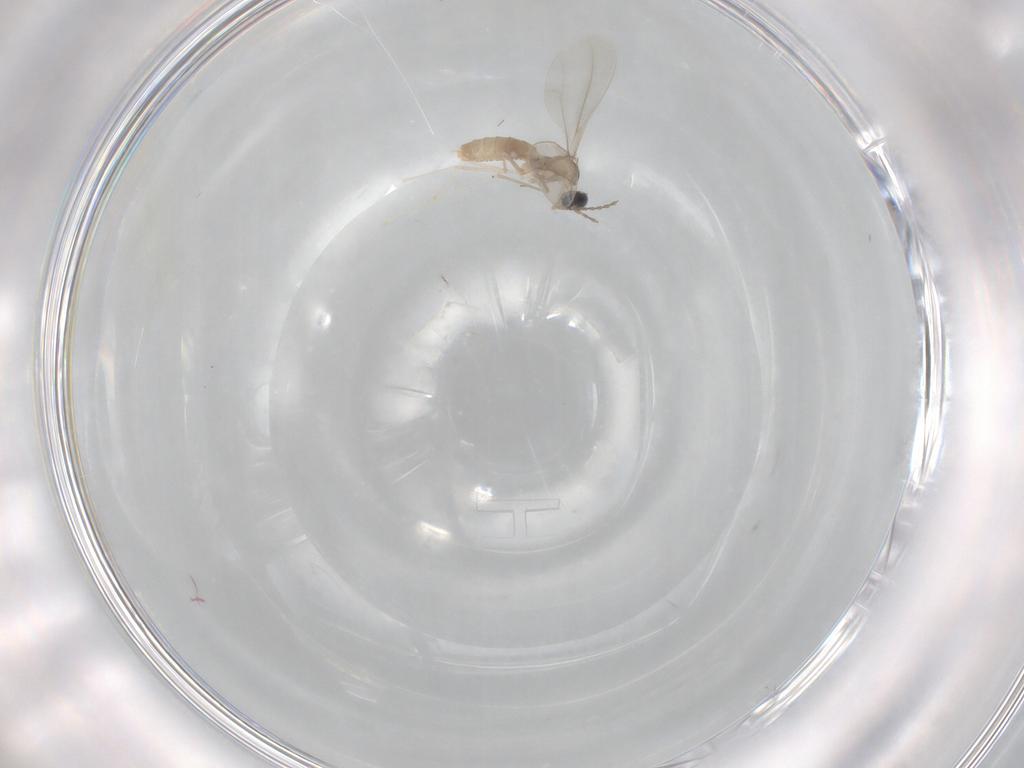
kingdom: Animalia
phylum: Arthropoda
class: Insecta
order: Diptera
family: Cecidomyiidae
